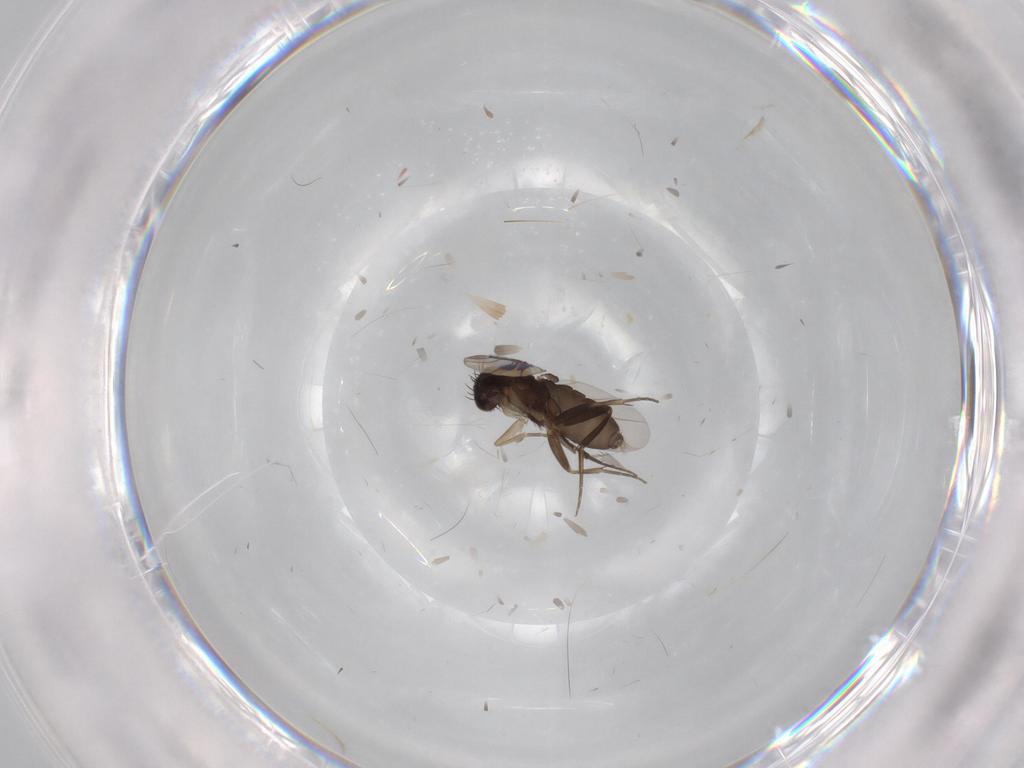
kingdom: Animalia
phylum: Arthropoda
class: Insecta
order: Diptera
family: Phoridae
